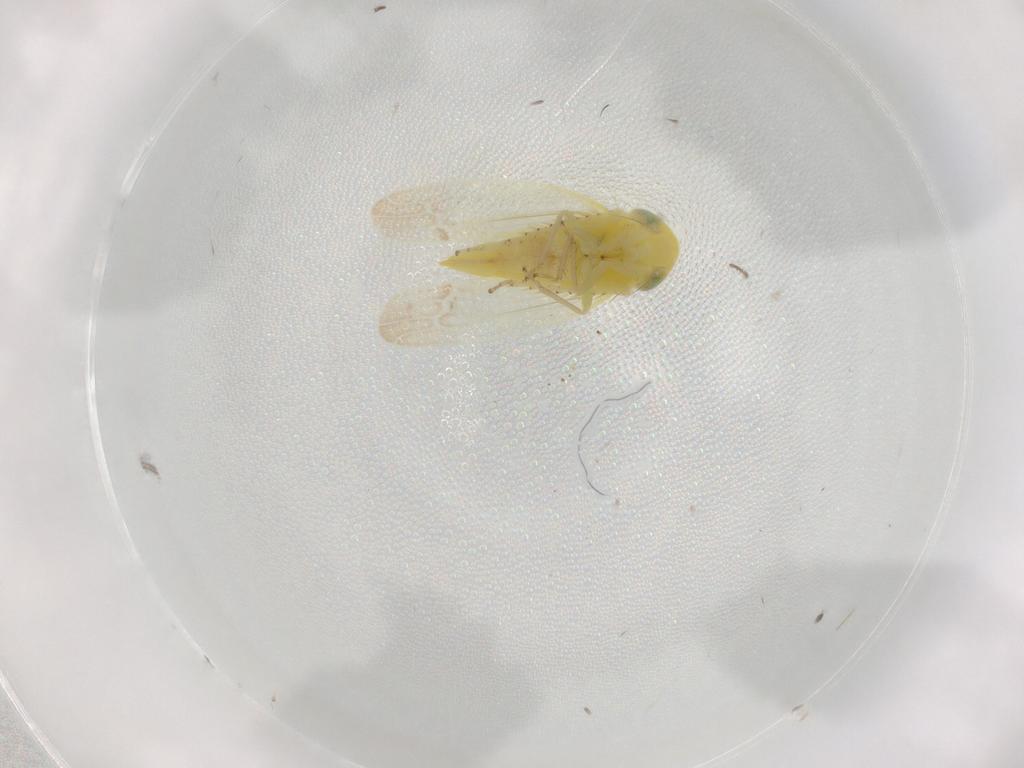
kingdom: Animalia
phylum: Arthropoda
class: Insecta
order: Hemiptera
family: Cicadellidae
